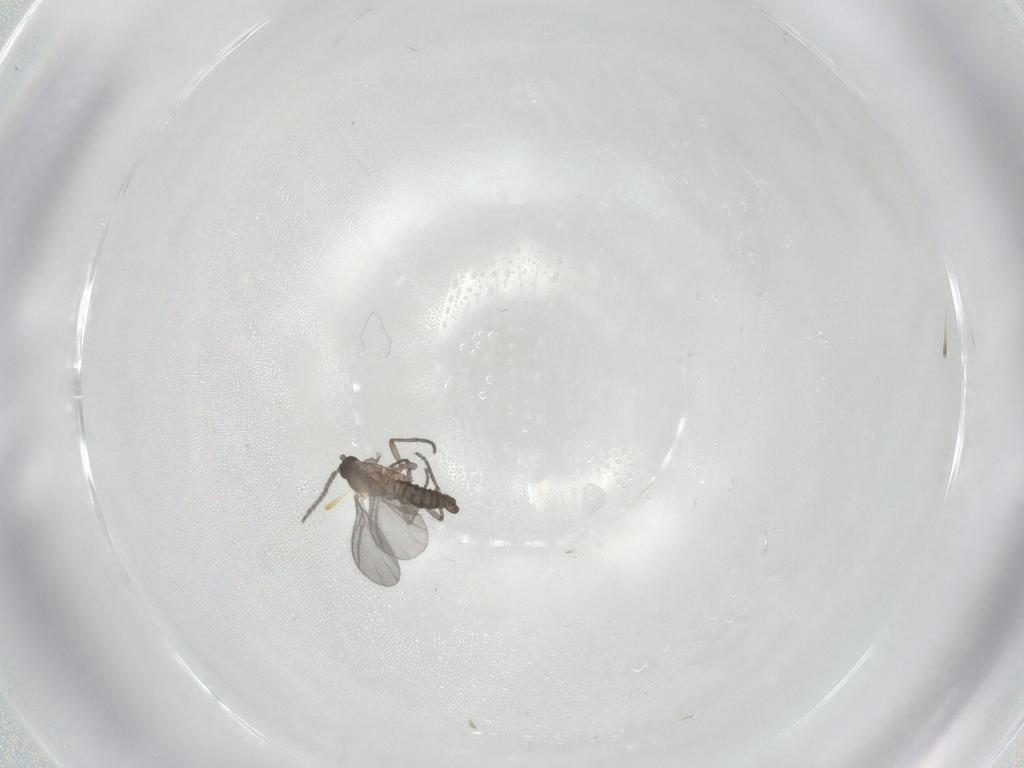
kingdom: Animalia
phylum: Arthropoda
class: Insecta
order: Diptera
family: Sciaridae
